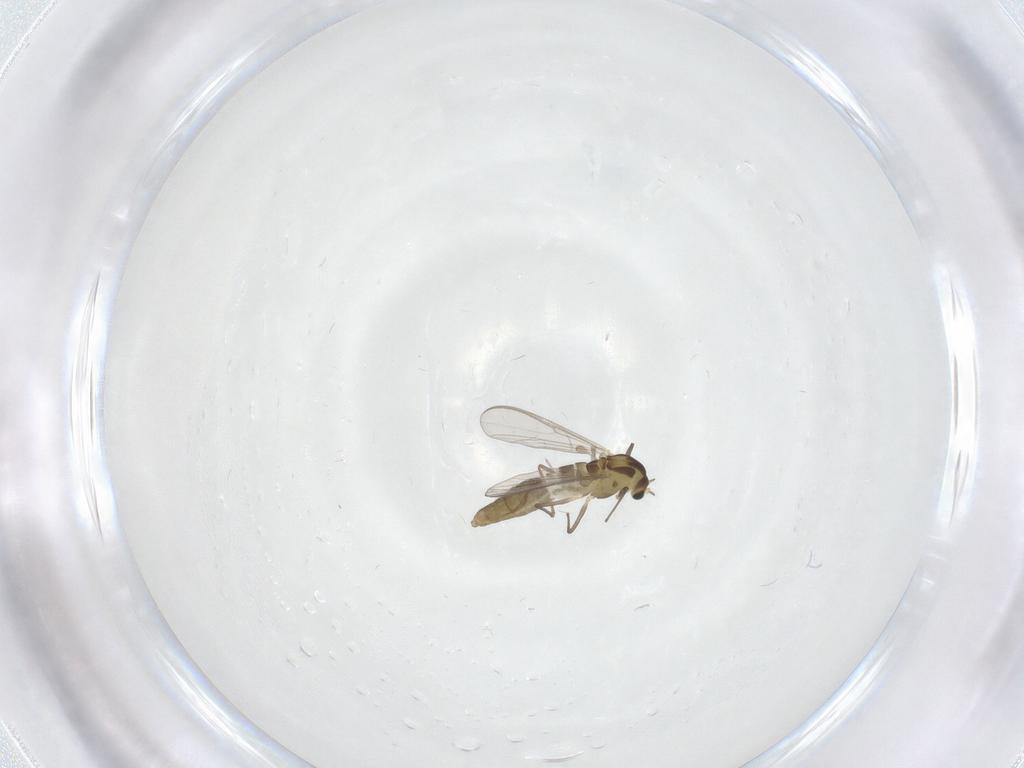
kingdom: Animalia
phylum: Arthropoda
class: Insecta
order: Diptera
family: Chironomidae
